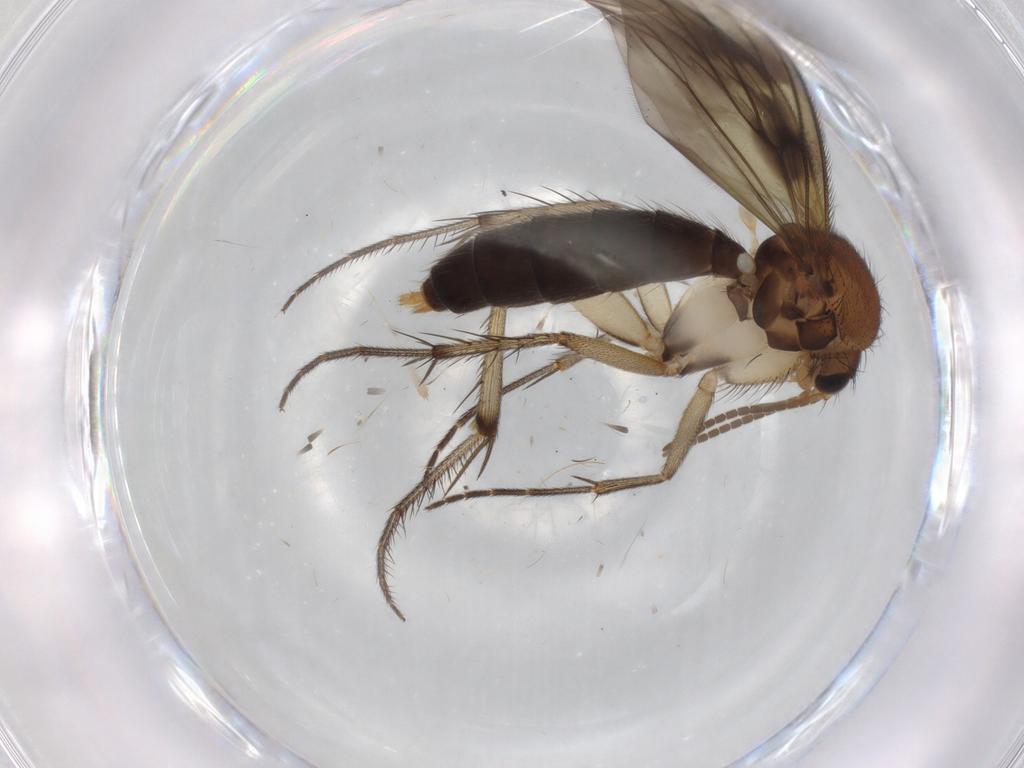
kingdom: Animalia
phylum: Arthropoda
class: Insecta
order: Diptera
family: Mycetophilidae
